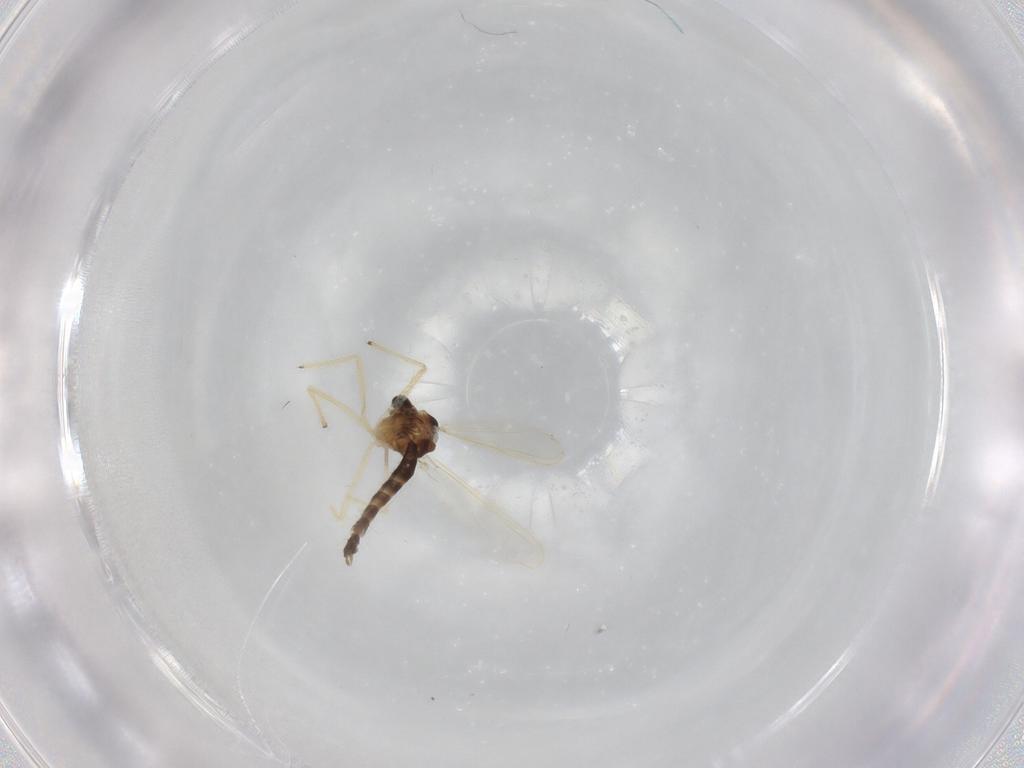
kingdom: Animalia
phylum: Arthropoda
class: Insecta
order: Diptera
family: Chironomidae
